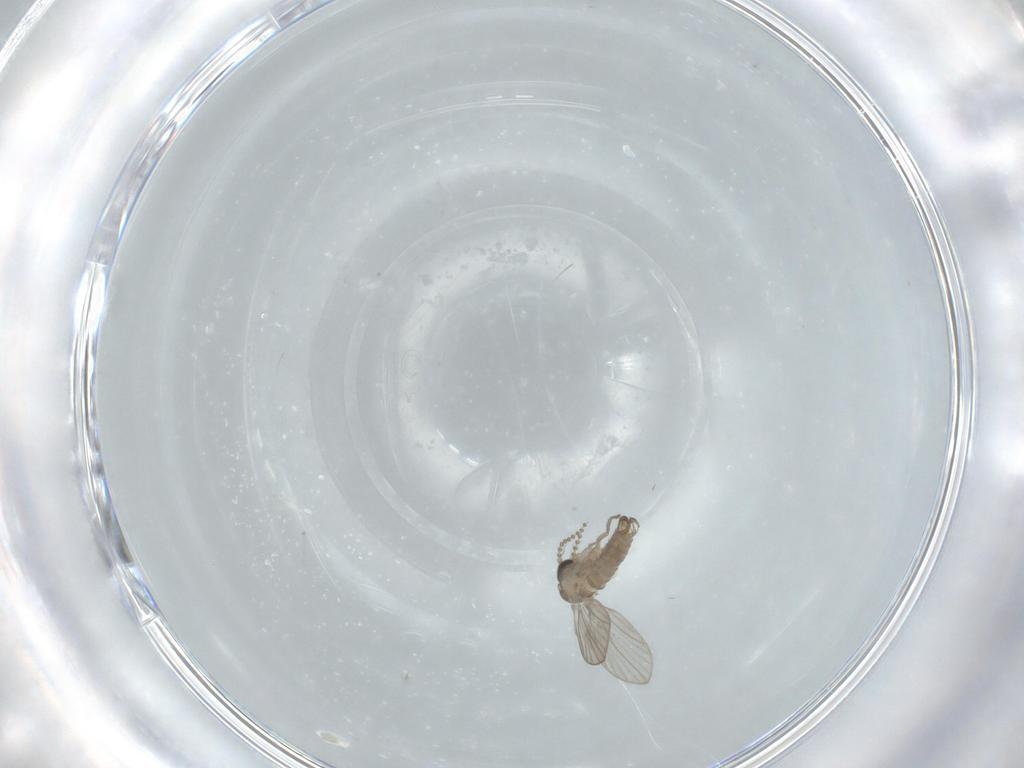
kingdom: Animalia
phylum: Arthropoda
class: Insecta
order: Diptera
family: Psychodidae
